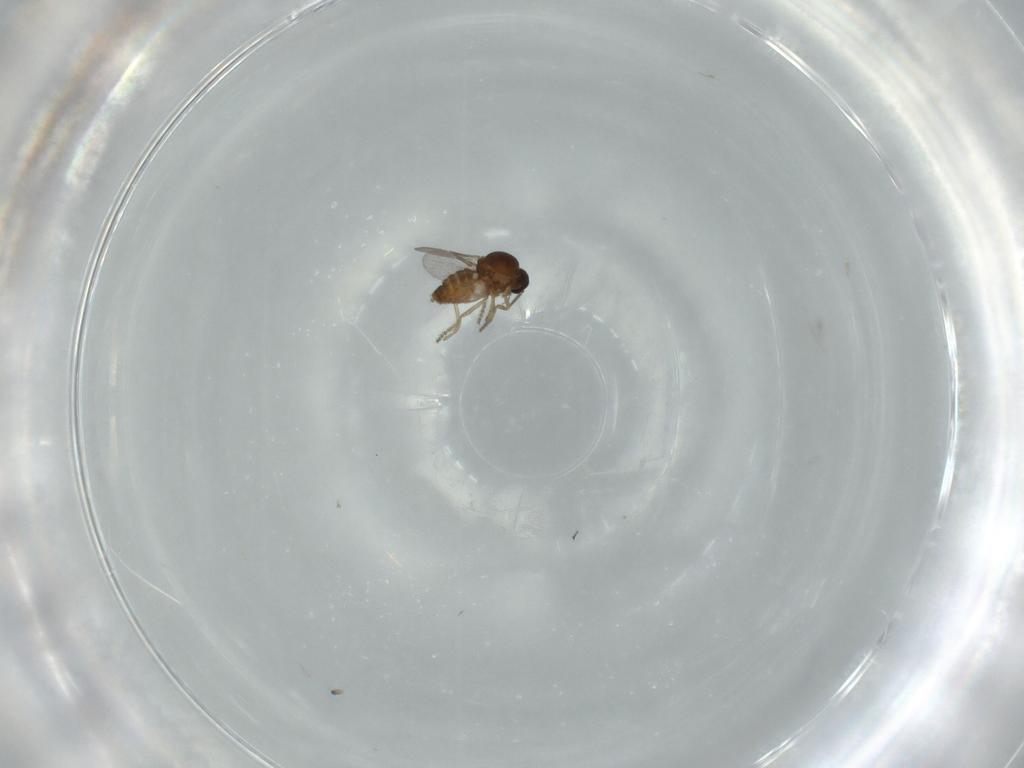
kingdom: Animalia
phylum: Arthropoda
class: Insecta
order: Diptera
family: Ceratopogonidae
